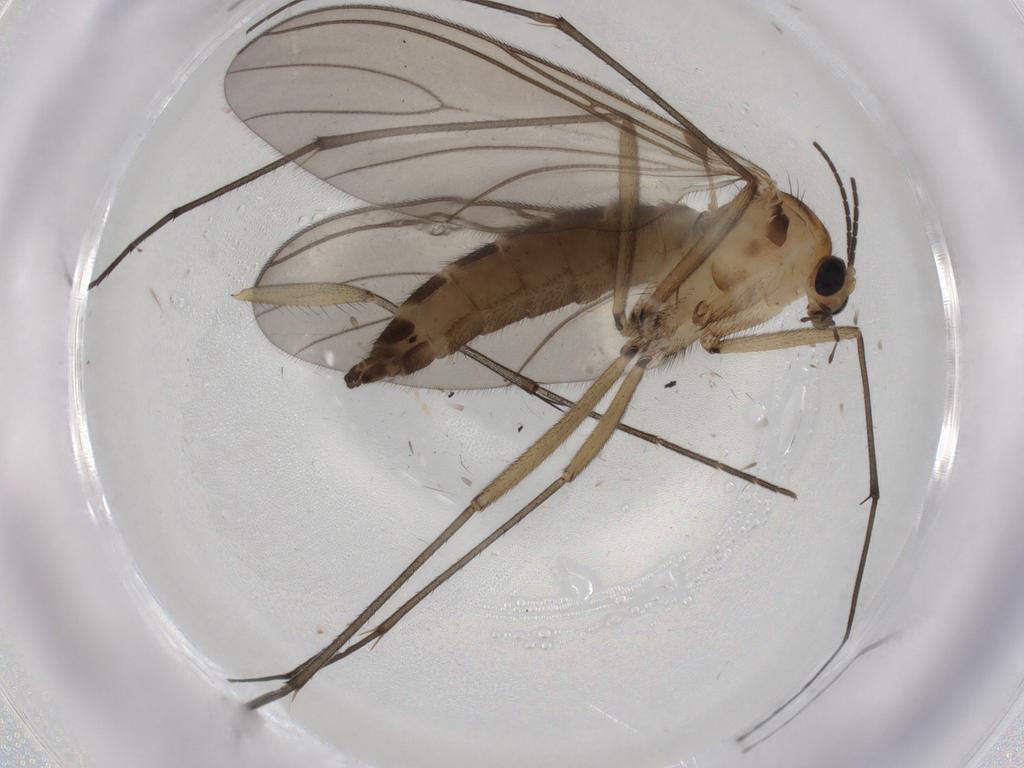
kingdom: Animalia
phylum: Arthropoda
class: Insecta
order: Diptera
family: Sciaridae
